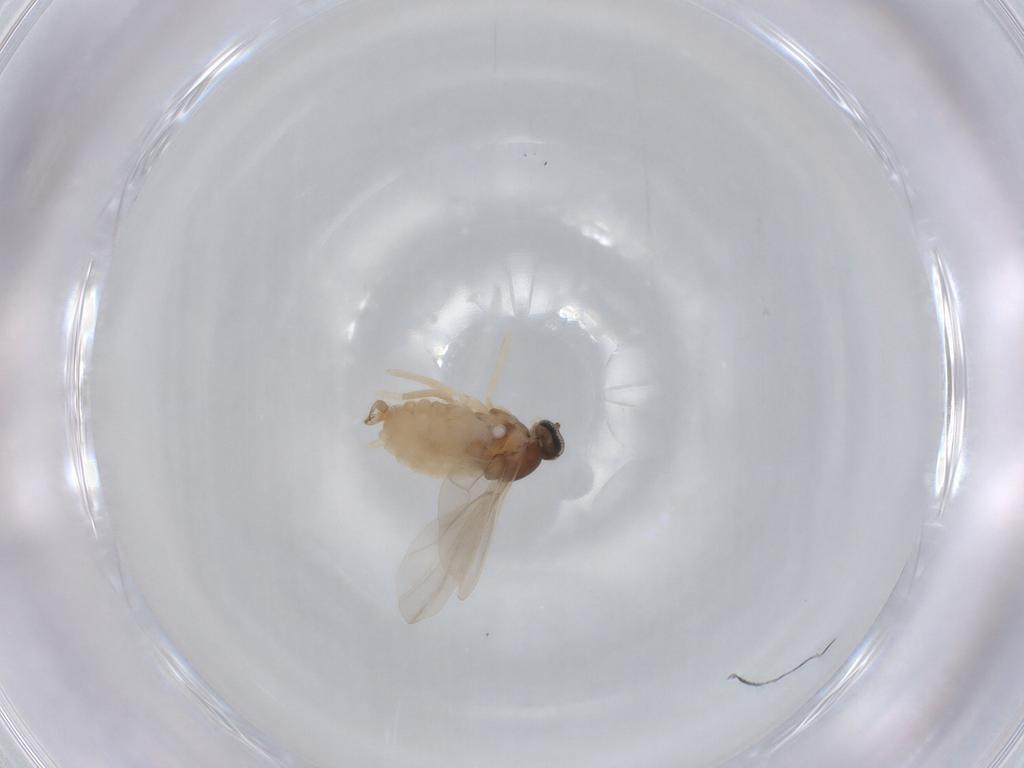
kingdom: Animalia
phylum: Arthropoda
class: Insecta
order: Diptera
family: Cecidomyiidae
